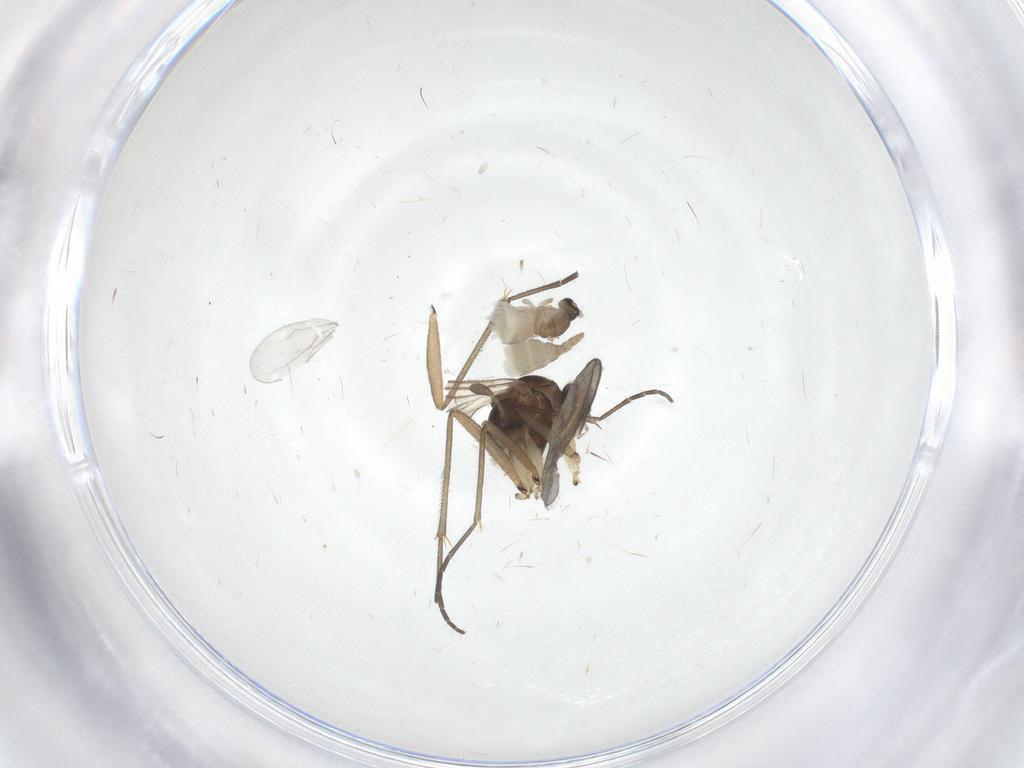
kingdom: Animalia
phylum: Arthropoda
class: Insecta
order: Diptera
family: Cecidomyiidae
